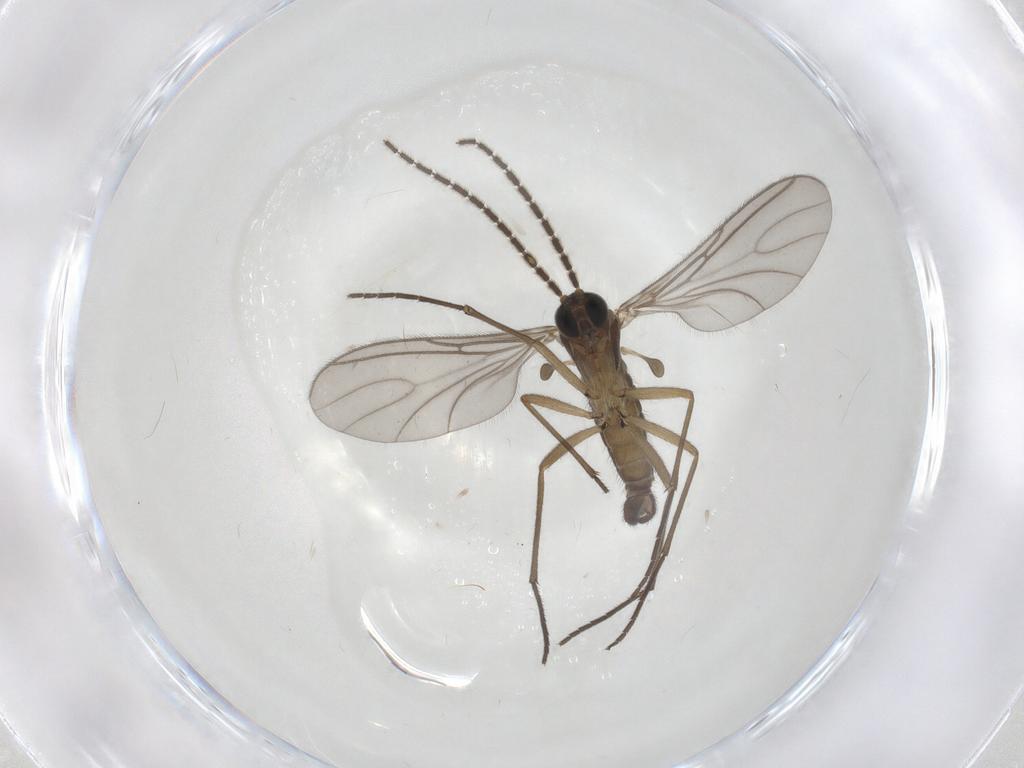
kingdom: Animalia
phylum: Arthropoda
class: Insecta
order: Diptera
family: Sciaridae
